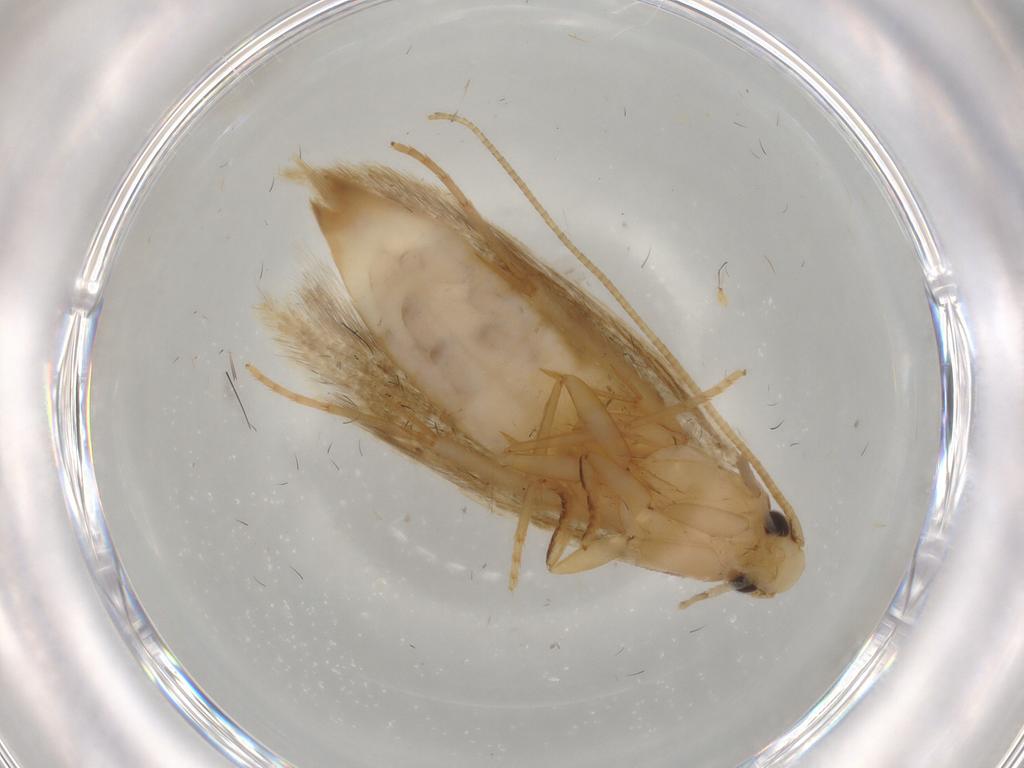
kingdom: Animalia
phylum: Arthropoda
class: Insecta
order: Lepidoptera
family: Tineidae
